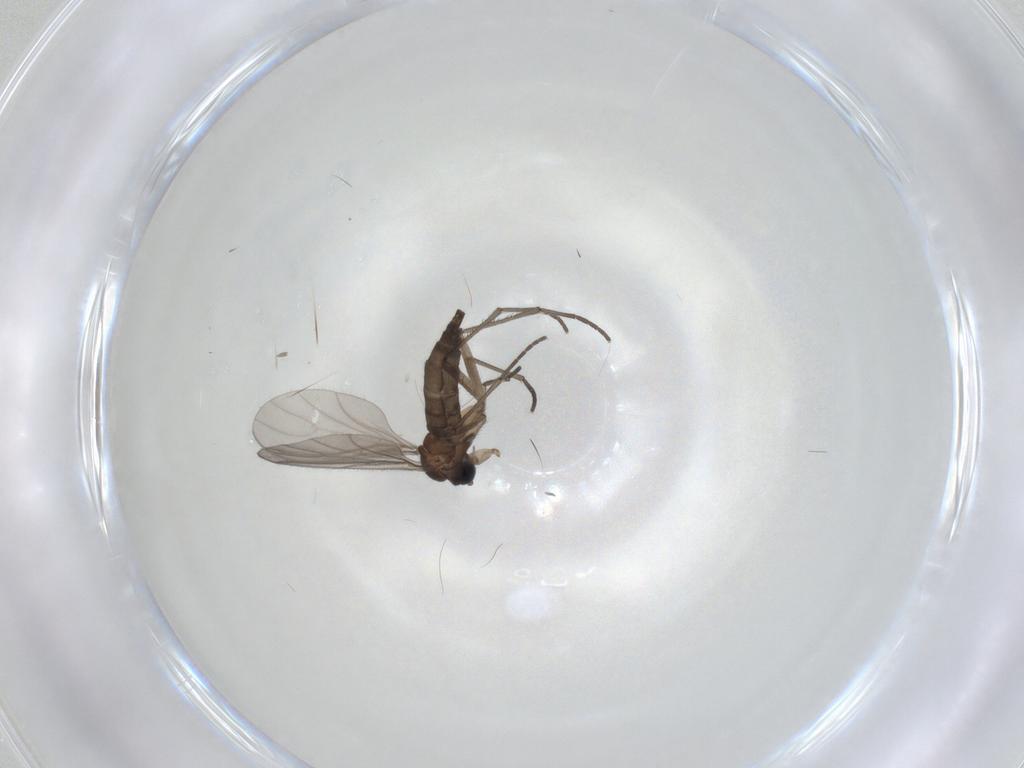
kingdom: Animalia
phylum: Arthropoda
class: Insecta
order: Diptera
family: Sciaridae
